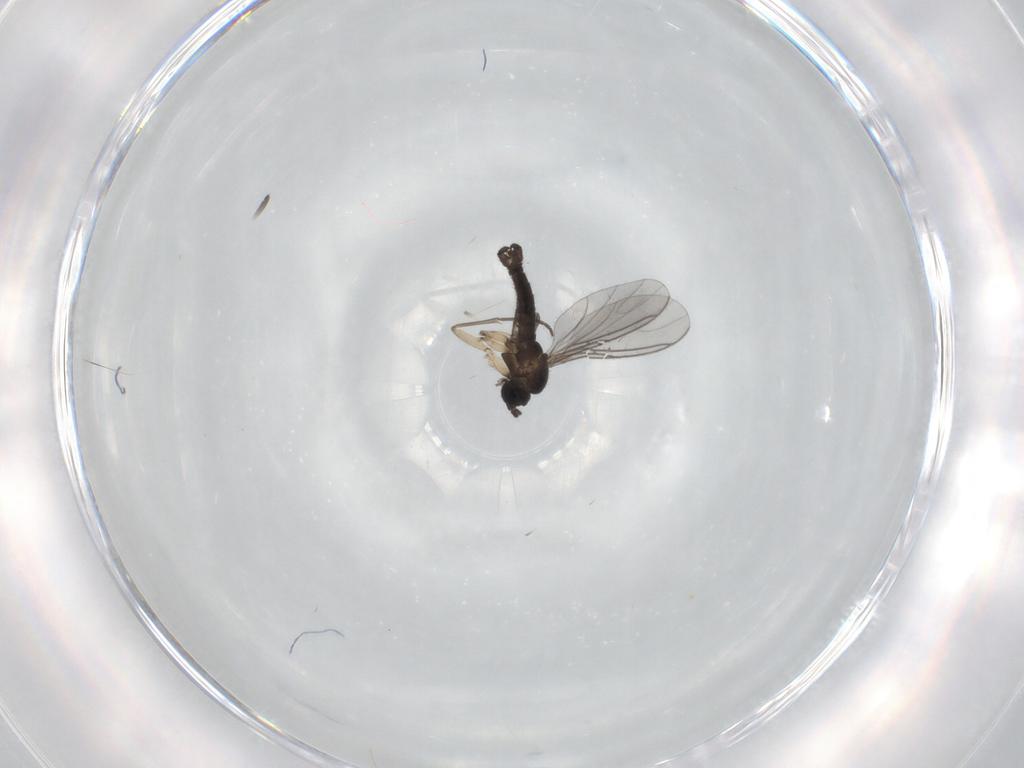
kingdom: Animalia
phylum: Arthropoda
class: Insecta
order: Diptera
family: Sciaridae
